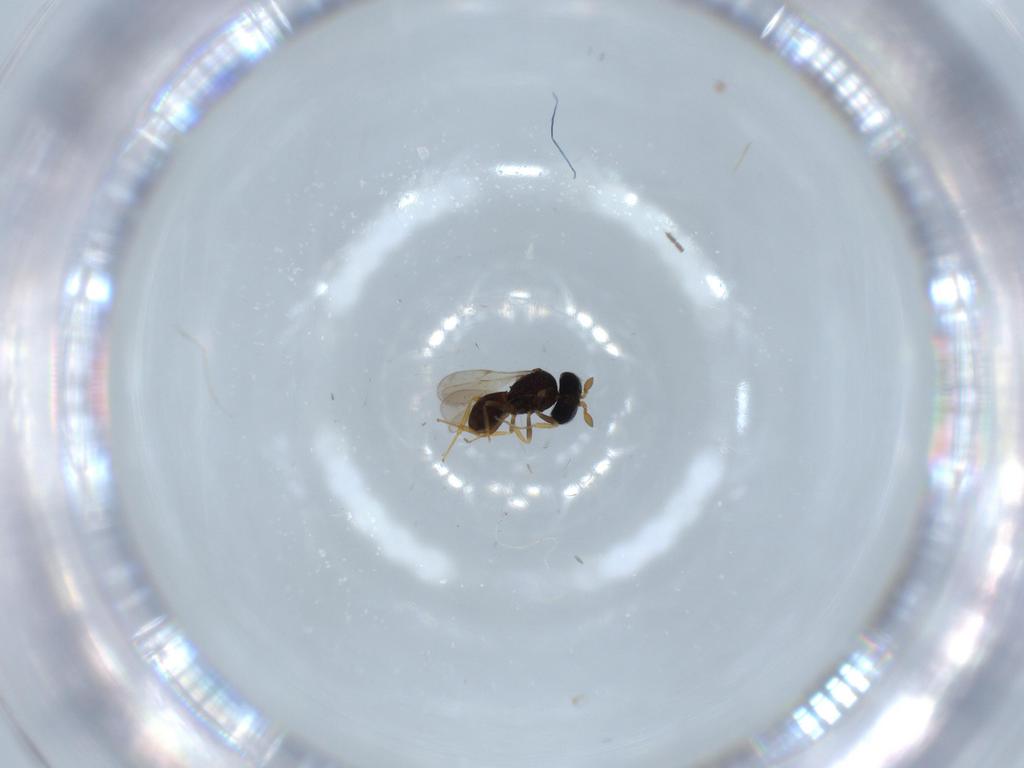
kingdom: Animalia
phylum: Arthropoda
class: Insecta
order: Hymenoptera
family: Scelionidae
